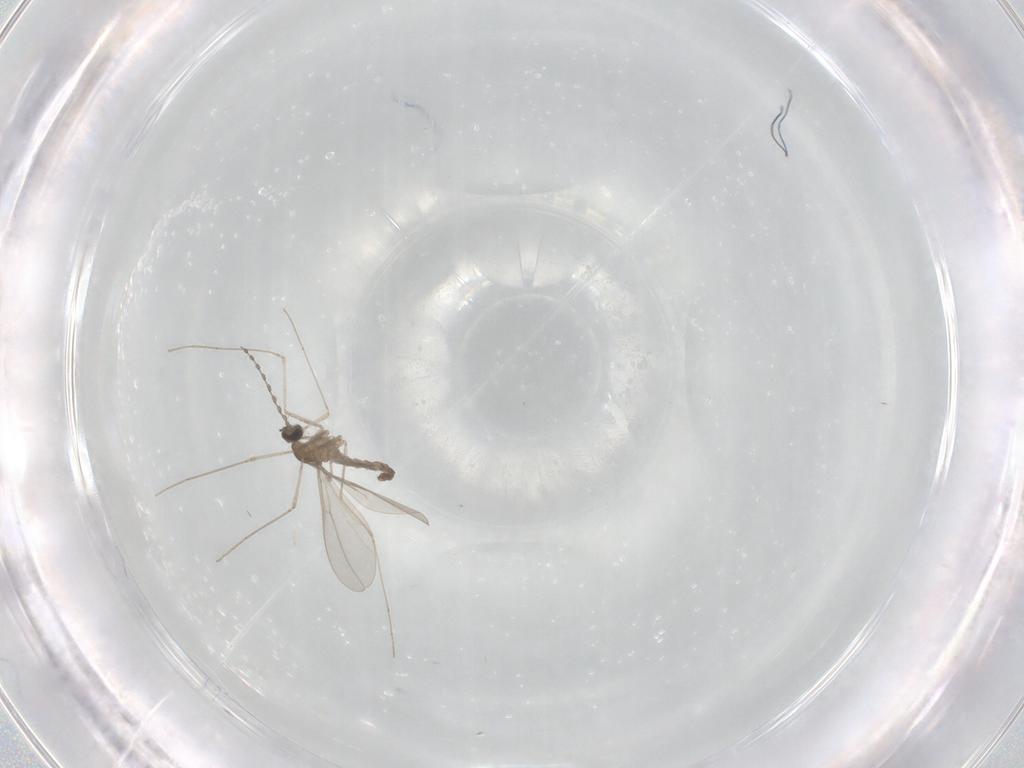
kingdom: Animalia
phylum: Arthropoda
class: Insecta
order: Diptera
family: Cecidomyiidae
